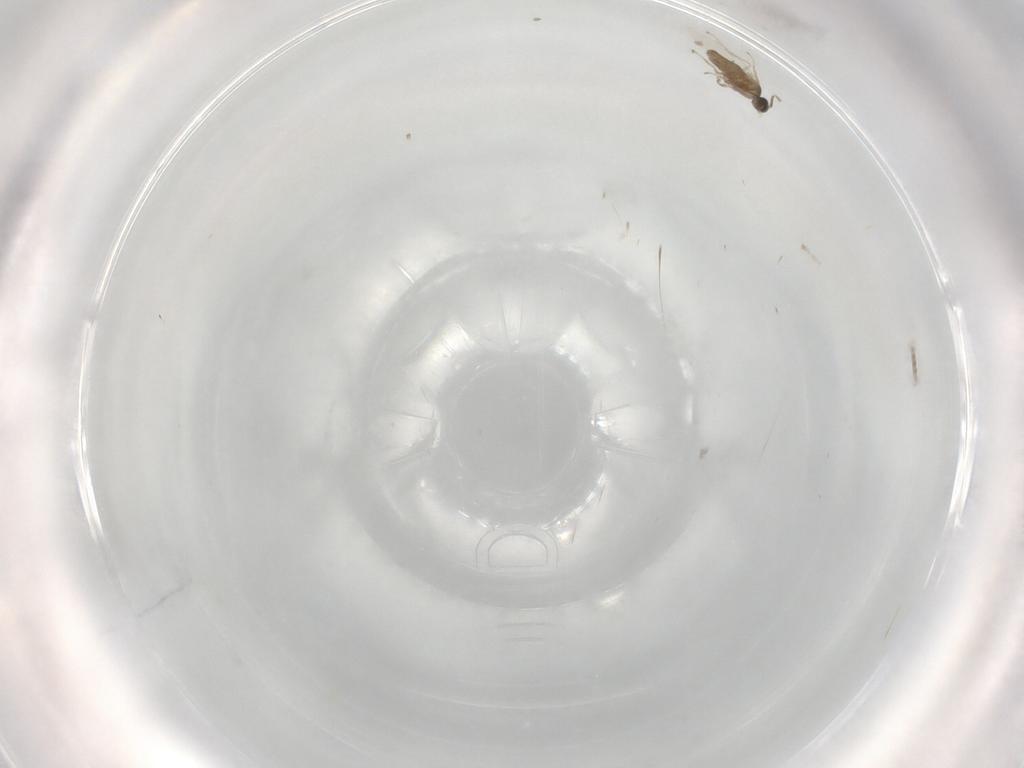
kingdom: Animalia
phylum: Arthropoda
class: Insecta
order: Diptera
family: Cecidomyiidae
